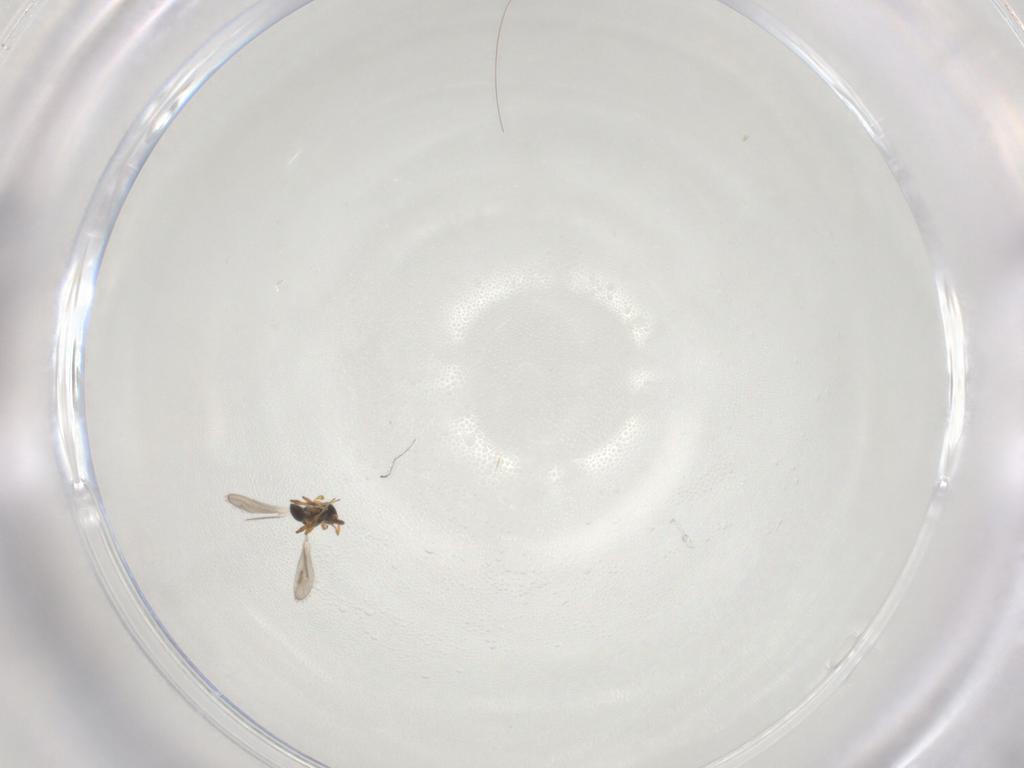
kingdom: Animalia
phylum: Arthropoda
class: Insecta
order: Hymenoptera
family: Platygastridae
